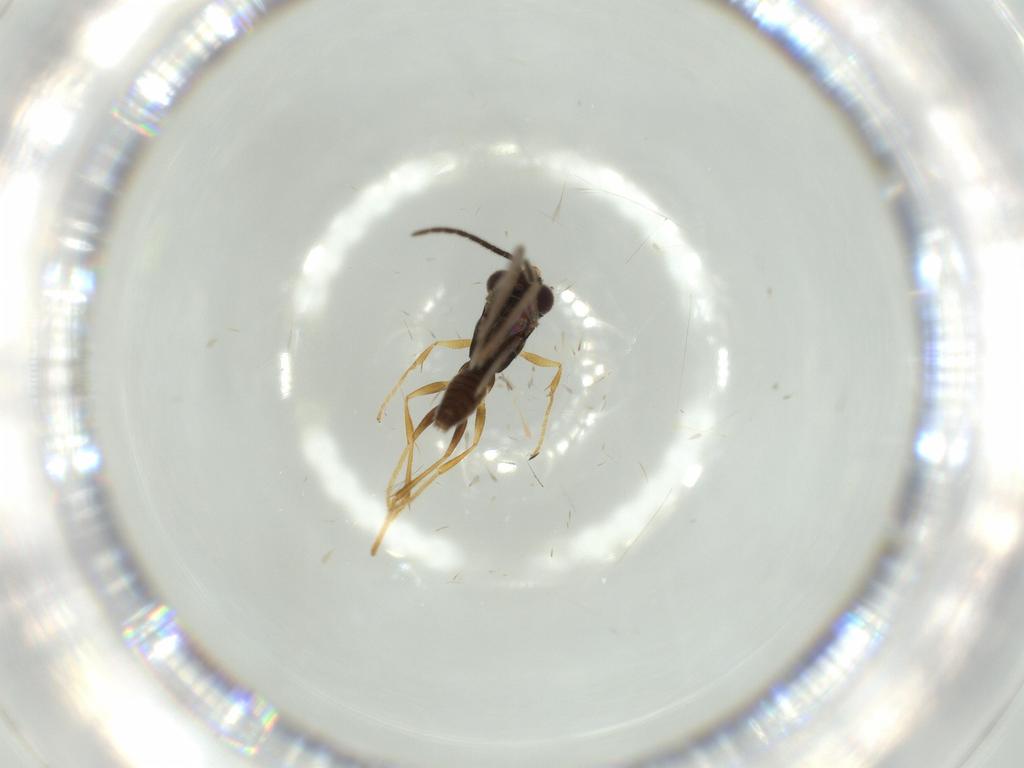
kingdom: Animalia
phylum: Arthropoda
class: Insecta
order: Hymenoptera
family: Dryinidae
